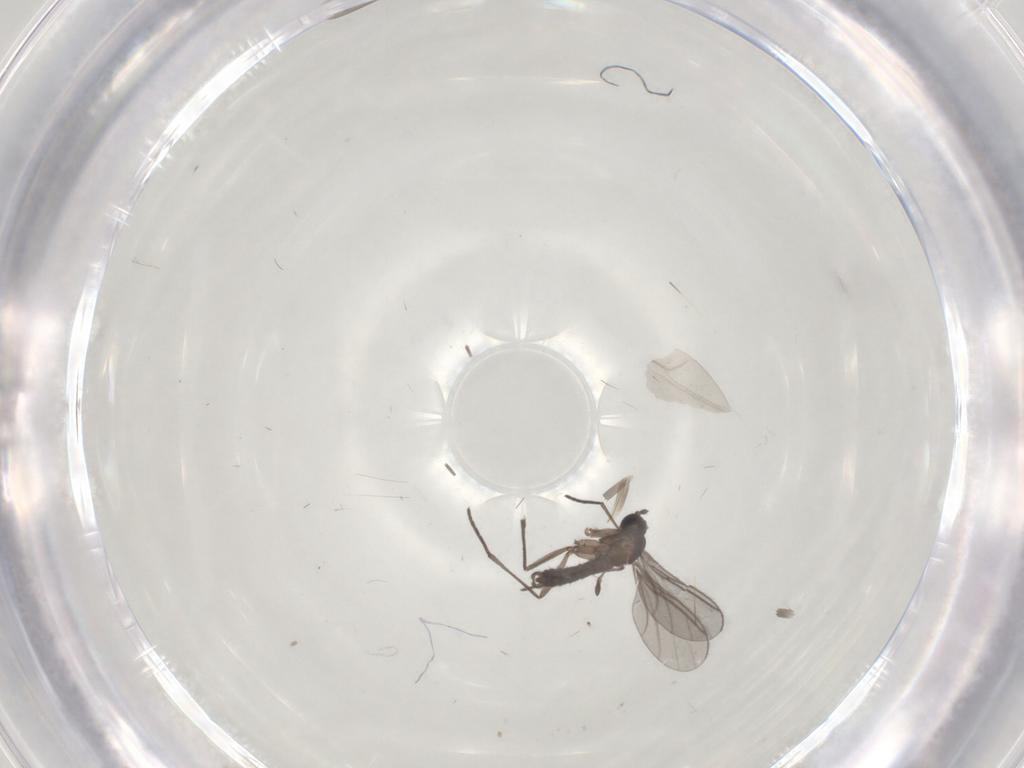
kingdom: Animalia
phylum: Arthropoda
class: Insecta
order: Diptera
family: Cecidomyiidae
